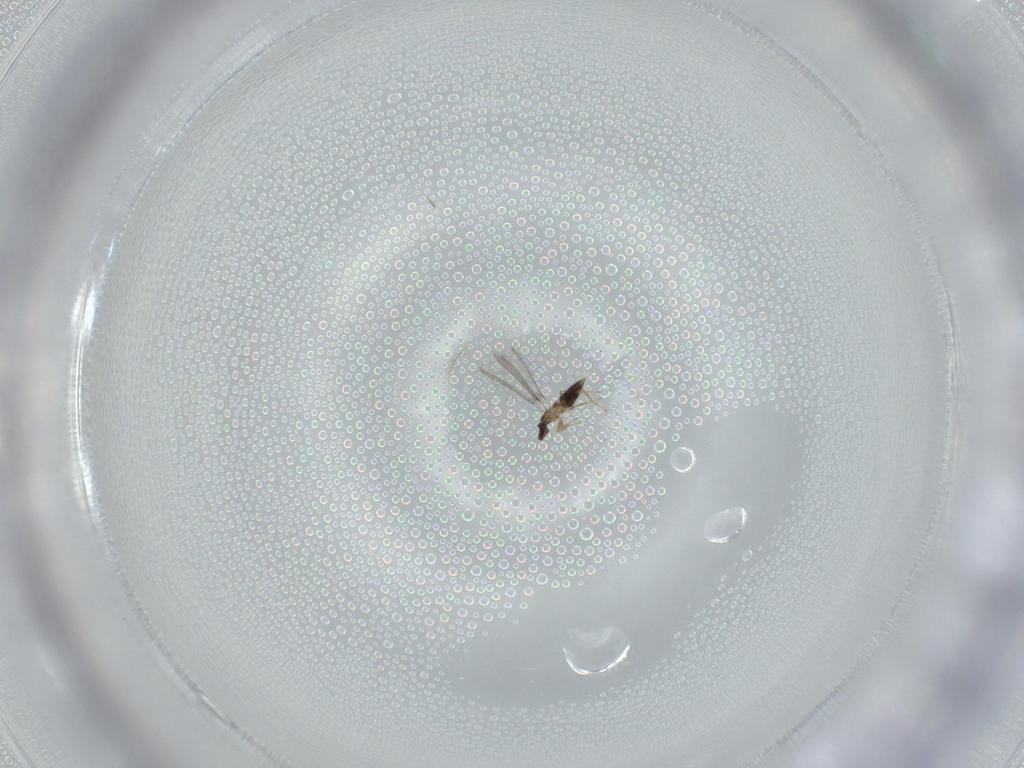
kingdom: Animalia
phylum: Arthropoda
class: Insecta
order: Hymenoptera
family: Mymaridae
